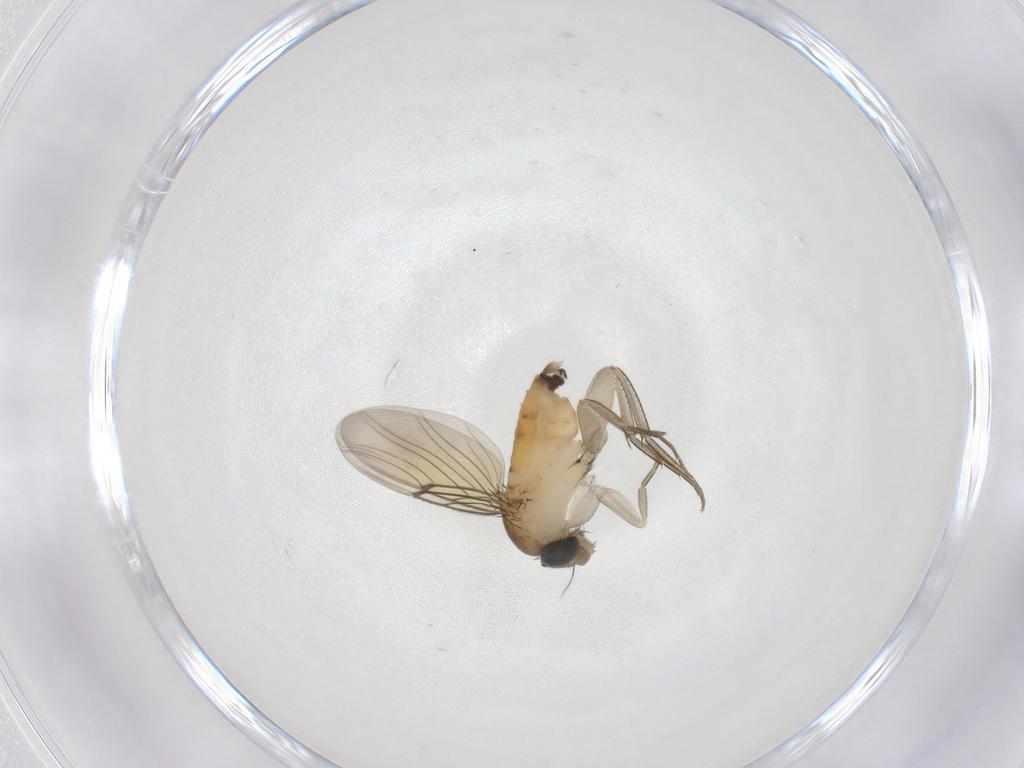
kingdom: Animalia
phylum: Arthropoda
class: Insecta
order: Diptera
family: Phoridae
